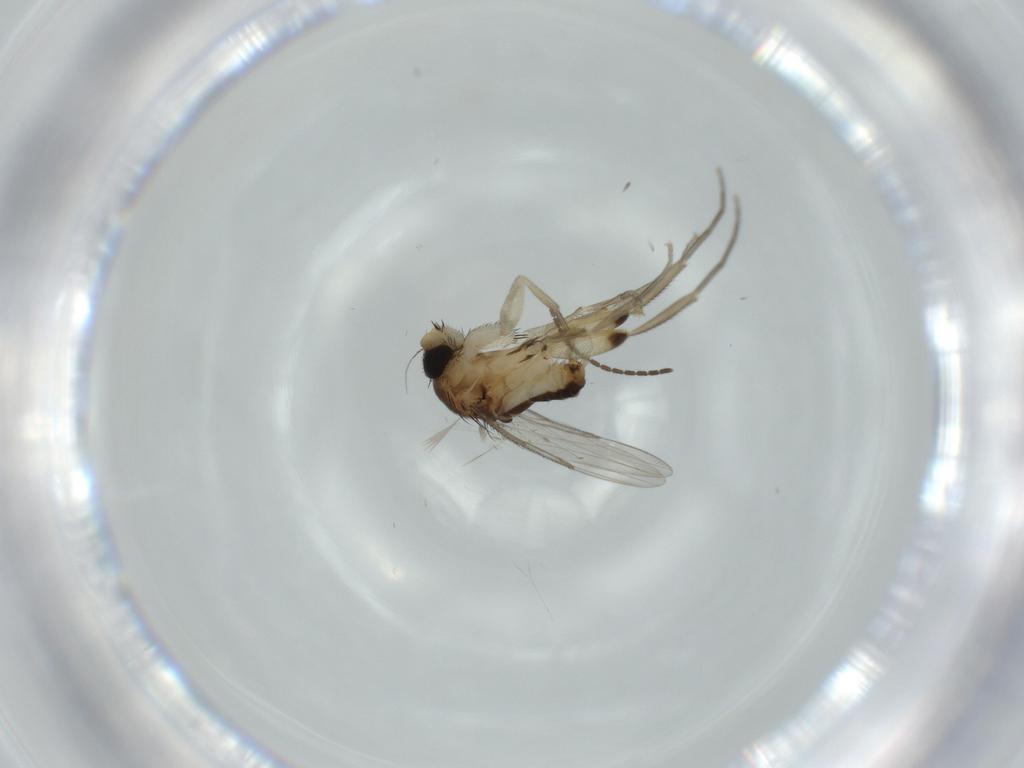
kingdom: Animalia
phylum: Arthropoda
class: Insecta
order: Diptera
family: Phoridae
